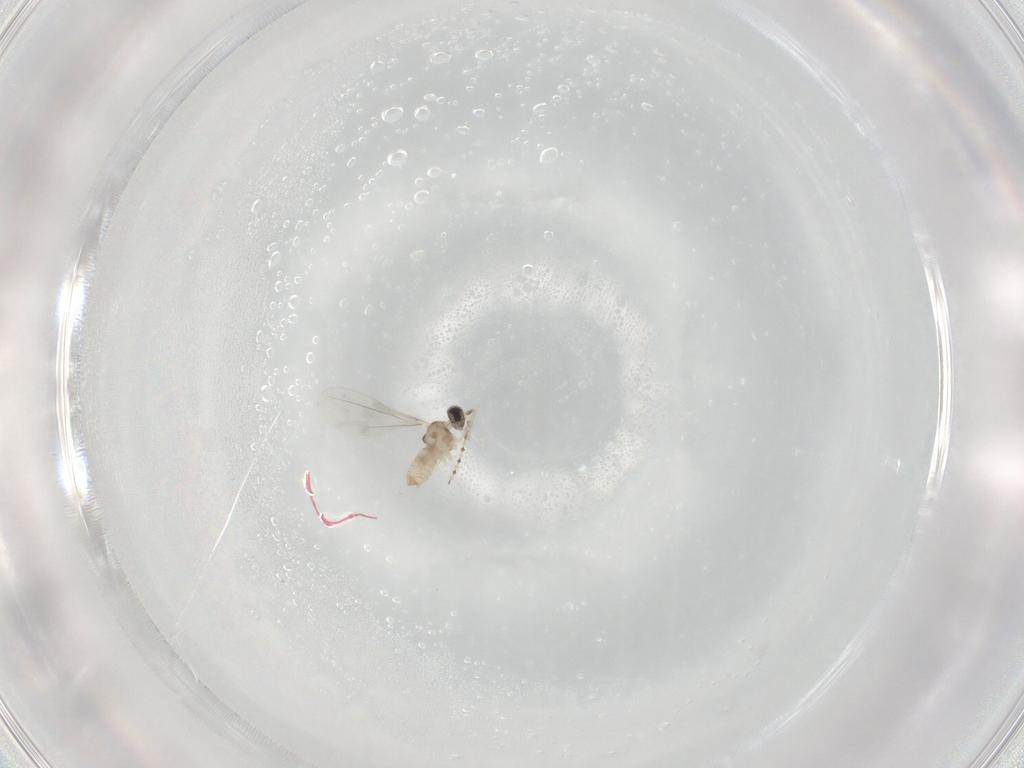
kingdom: Animalia
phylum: Arthropoda
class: Insecta
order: Diptera
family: Cecidomyiidae
